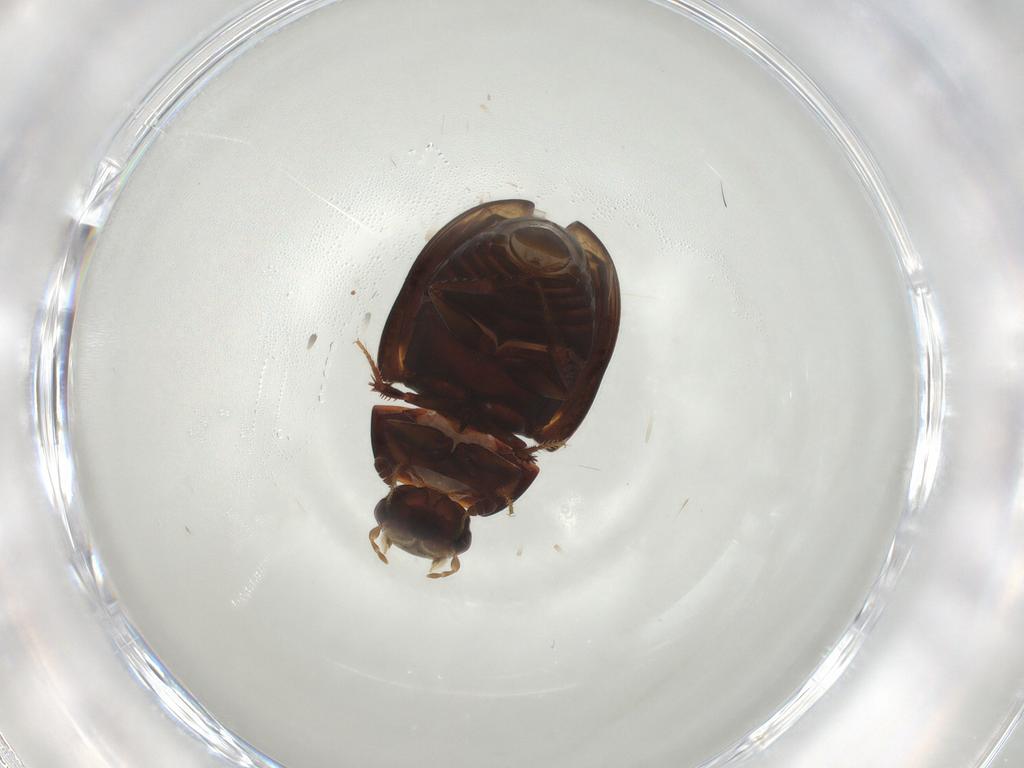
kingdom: Animalia
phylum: Arthropoda
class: Insecta
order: Coleoptera
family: Hydrophilidae
